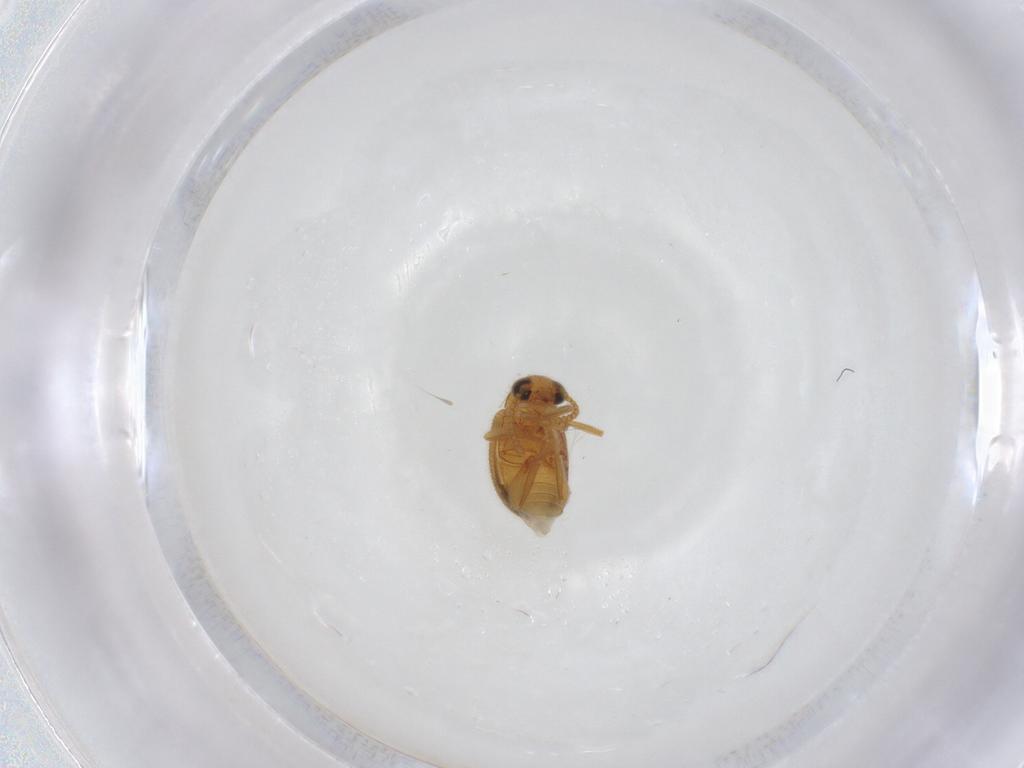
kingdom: Animalia
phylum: Arthropoda
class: Insecta
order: Coleoptera
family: Aderidae
